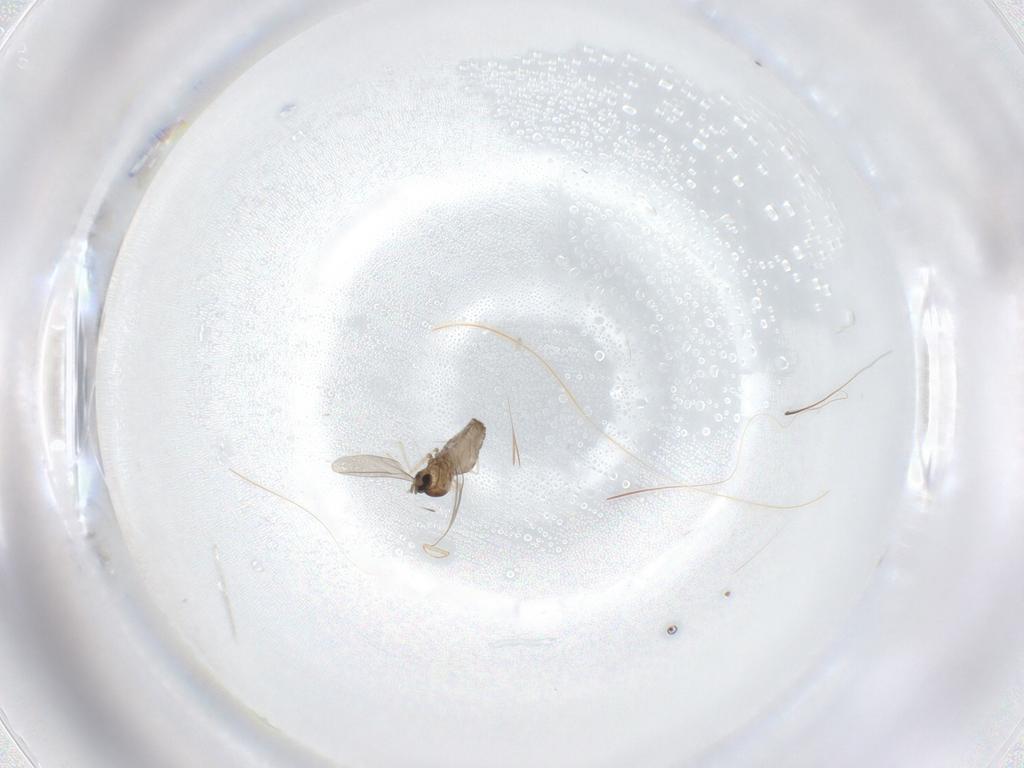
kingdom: Animalia
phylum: Arthropoda
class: Insecta
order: Diptera
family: Cecidomyiidae
